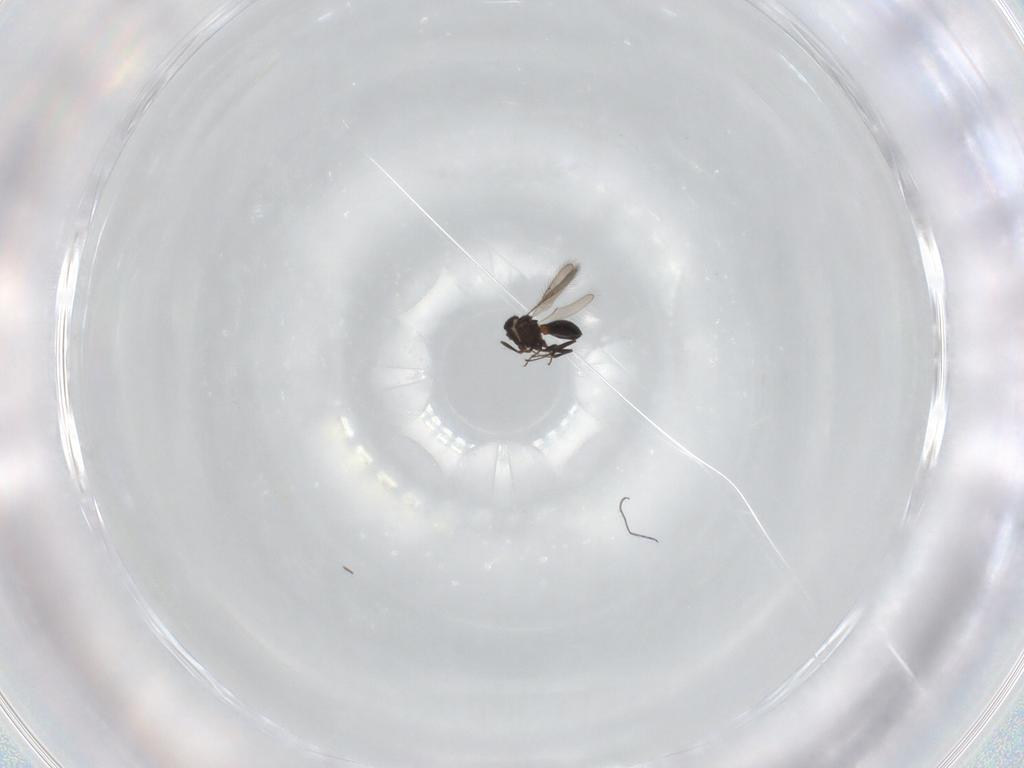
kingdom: Animalia
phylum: Arthropoda
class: Insecta
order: Hymenoptera
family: Scelionidae
